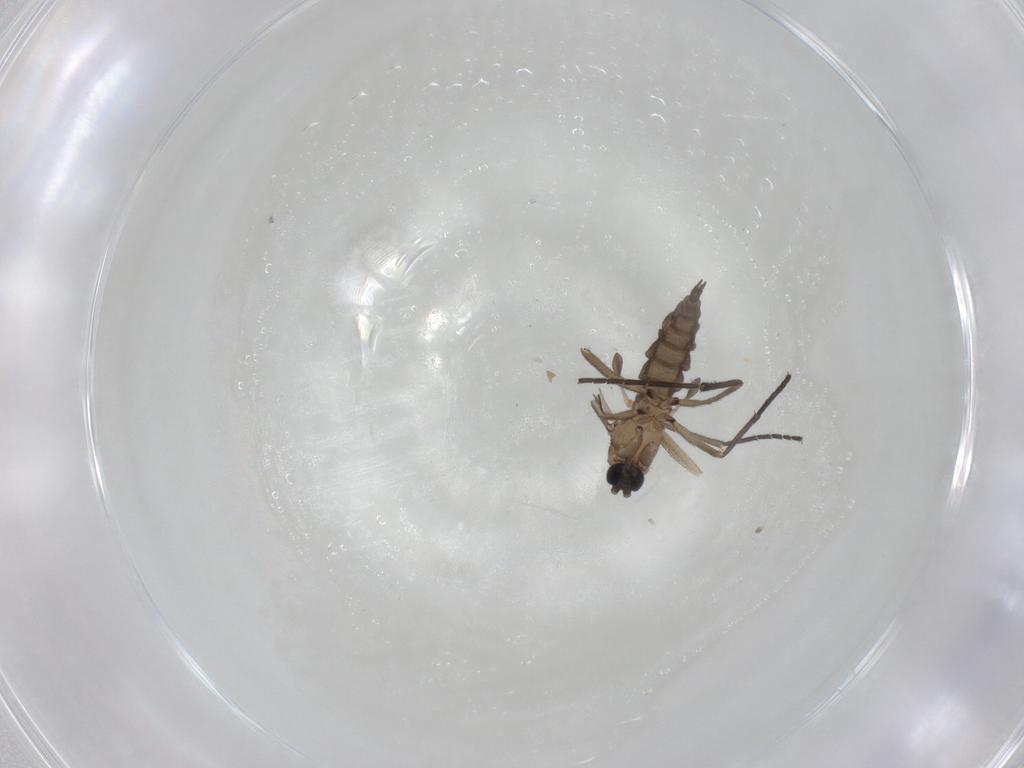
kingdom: Animalia
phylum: Arthropoda
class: Insecta
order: Diptera
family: Sciaridae
